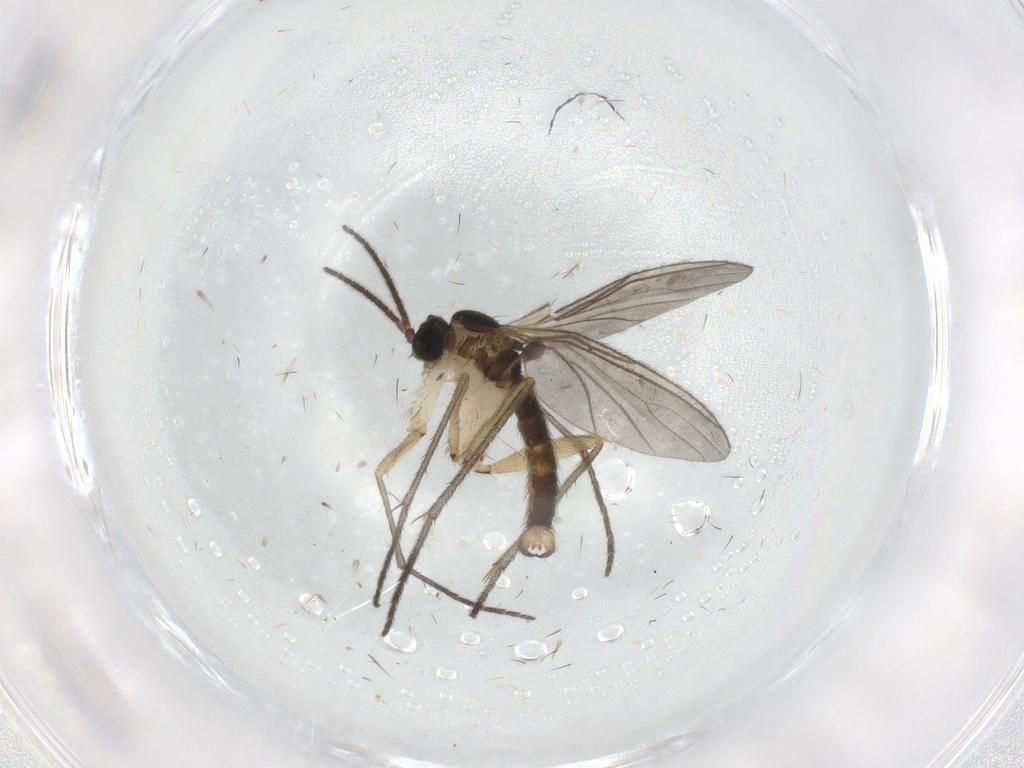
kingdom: Animalia
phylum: Arthropoda
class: Insecta
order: Diptera
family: Sciaridae
